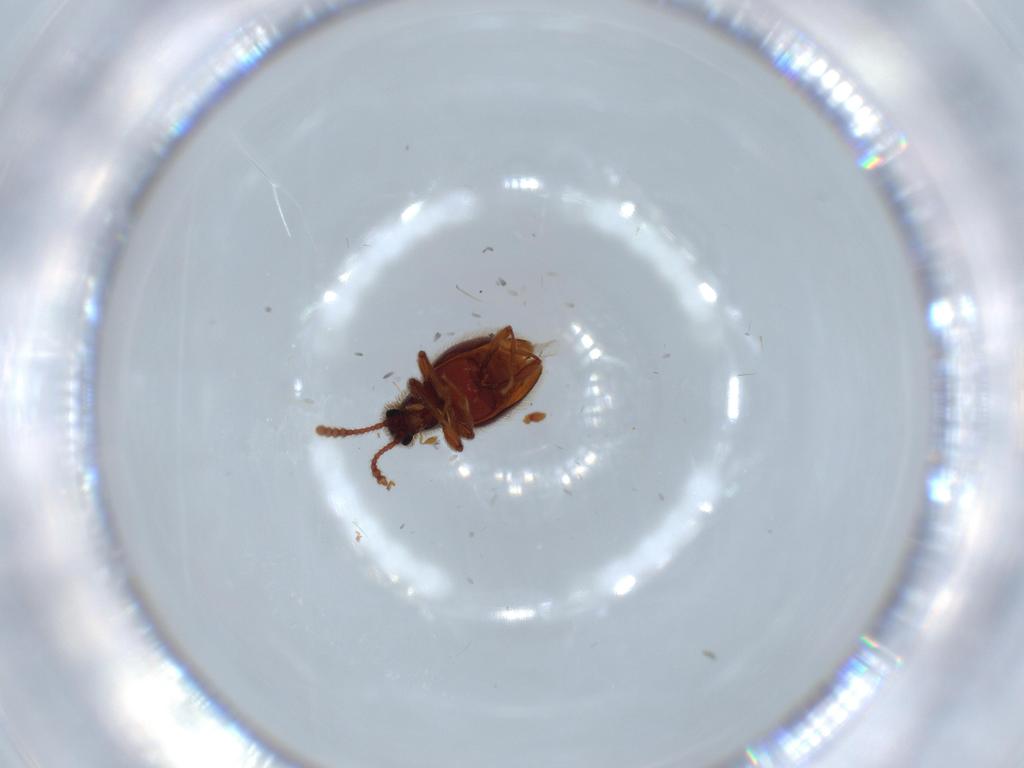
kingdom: Animalia
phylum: Arthropoda
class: Insecta
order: Coleoptera
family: Staphylinidae
